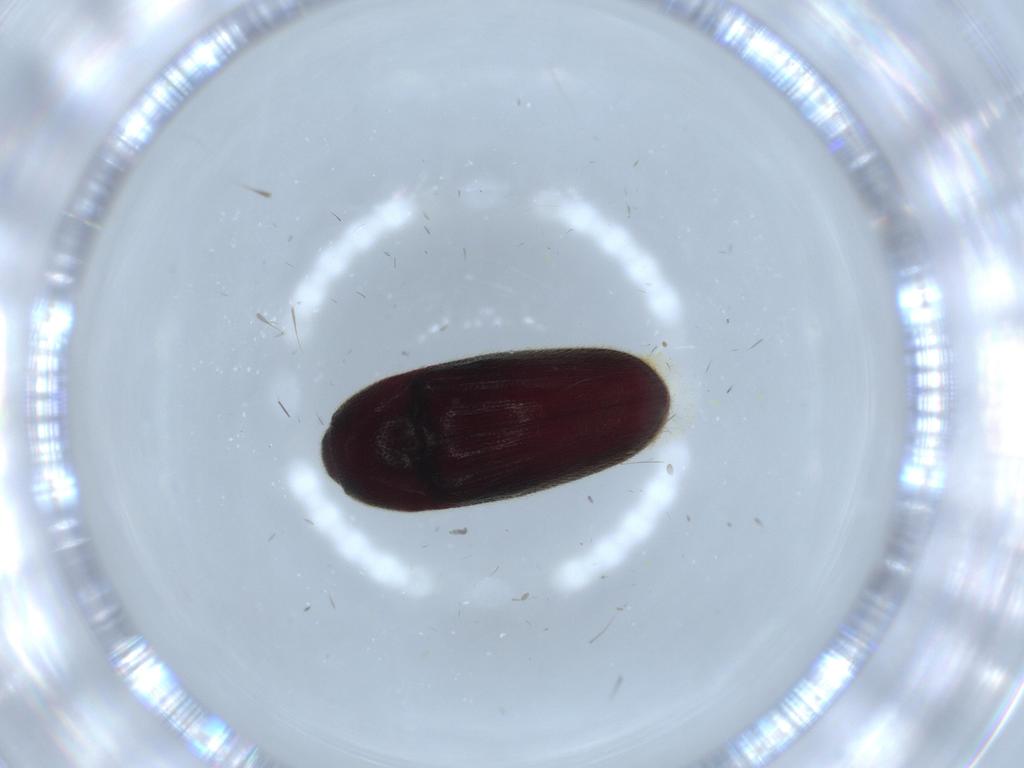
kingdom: Animalia
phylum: Arthropoda
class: Insecta
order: Coleoptera
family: Throscidae
